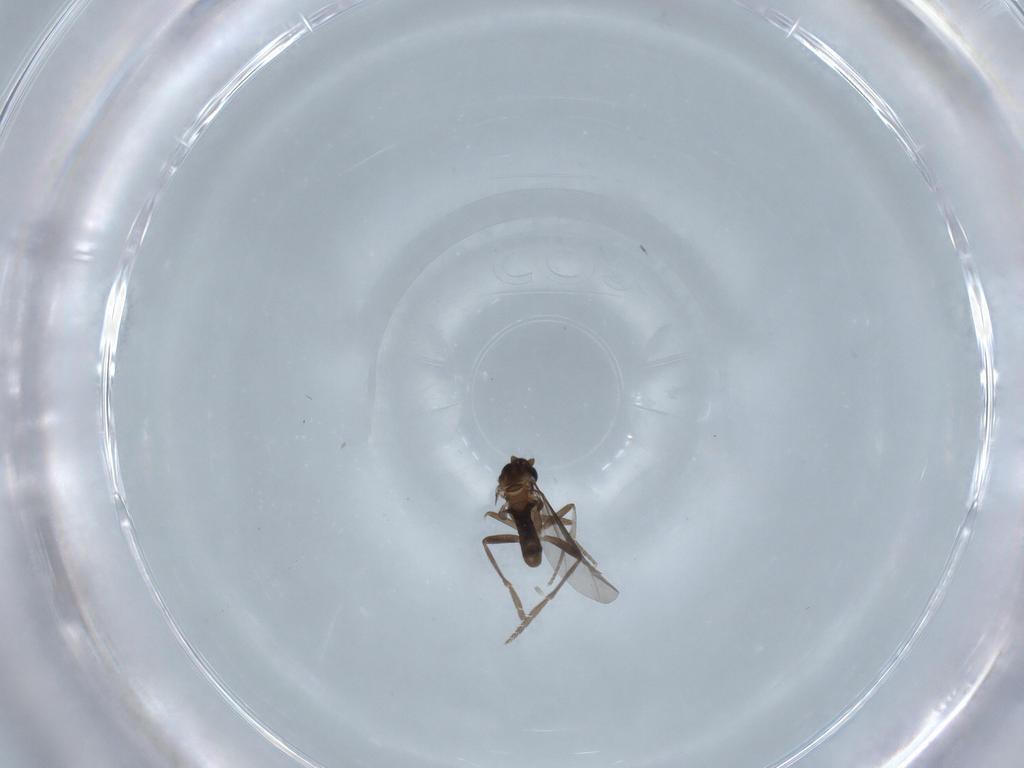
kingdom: Animalia
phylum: Arthropoda
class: Insecta
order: Diptera
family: Phoridae
